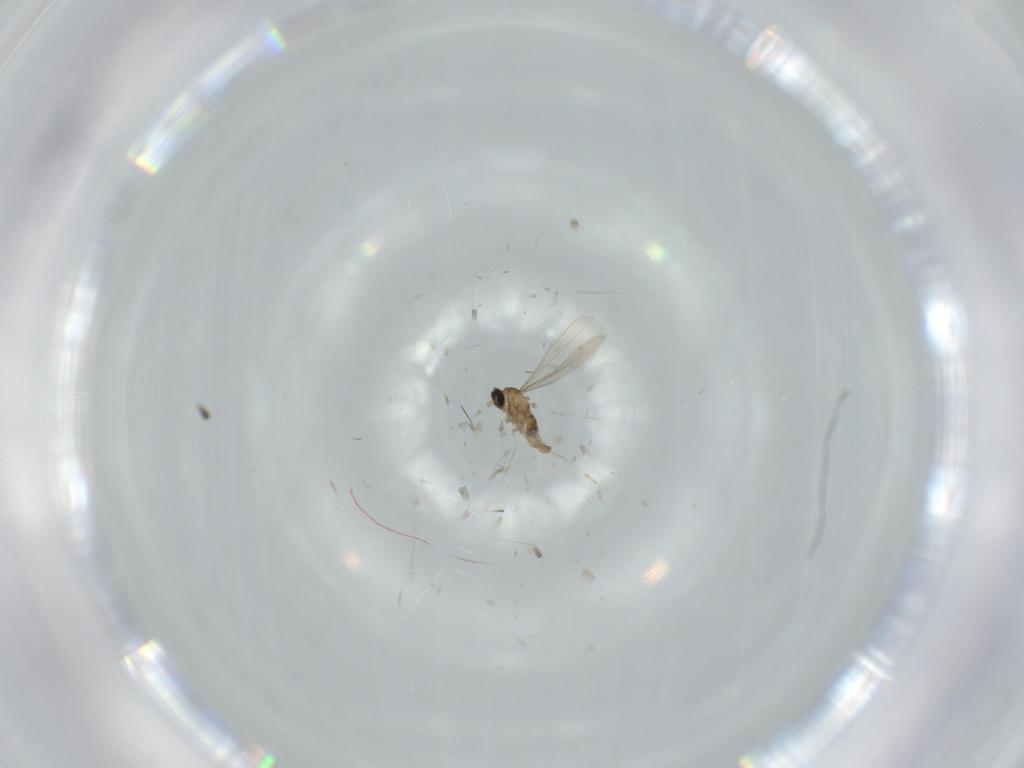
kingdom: Animalia
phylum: Arthropoda
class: Insecta
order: Diptera
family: Cecidomyiidae
